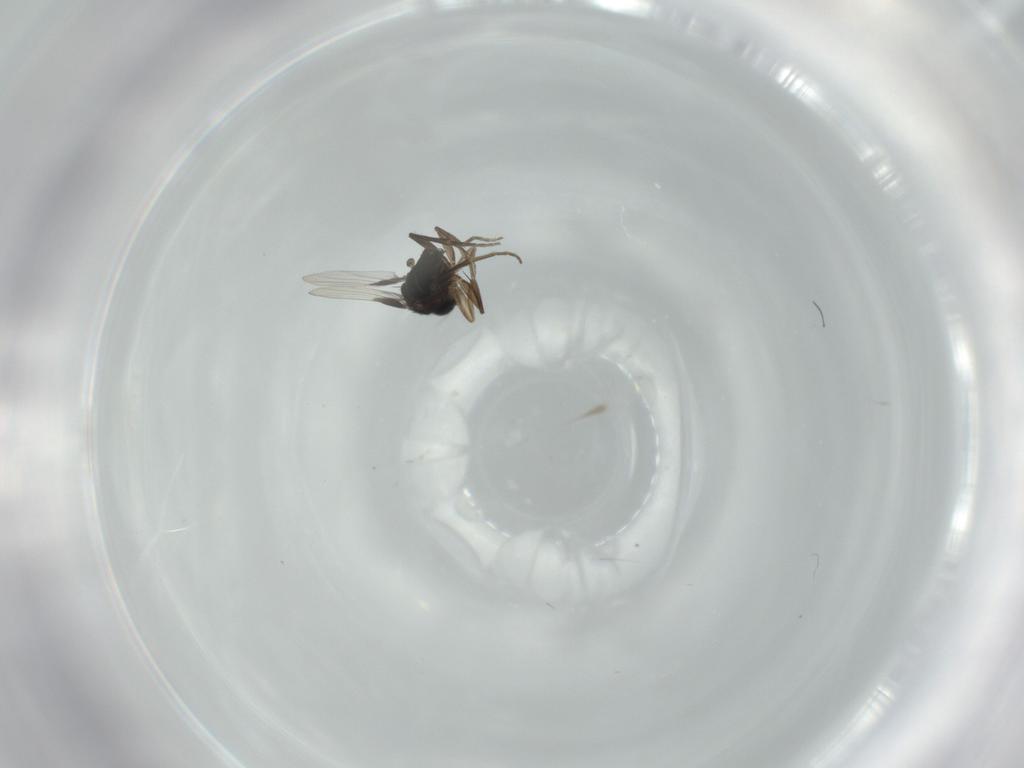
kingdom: Animalia
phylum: Arthropoda
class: Insecta
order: Diptera
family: Phoridae
